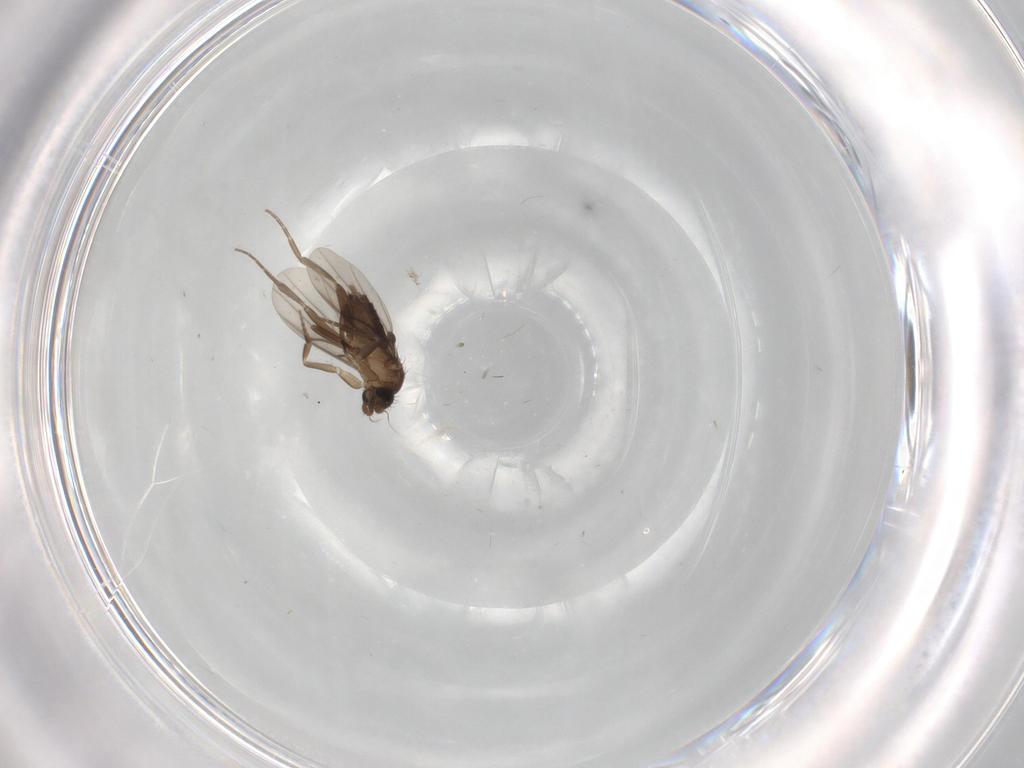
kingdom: Animalia
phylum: Arthropoda
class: Insecta
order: Diptera
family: Phoridae
